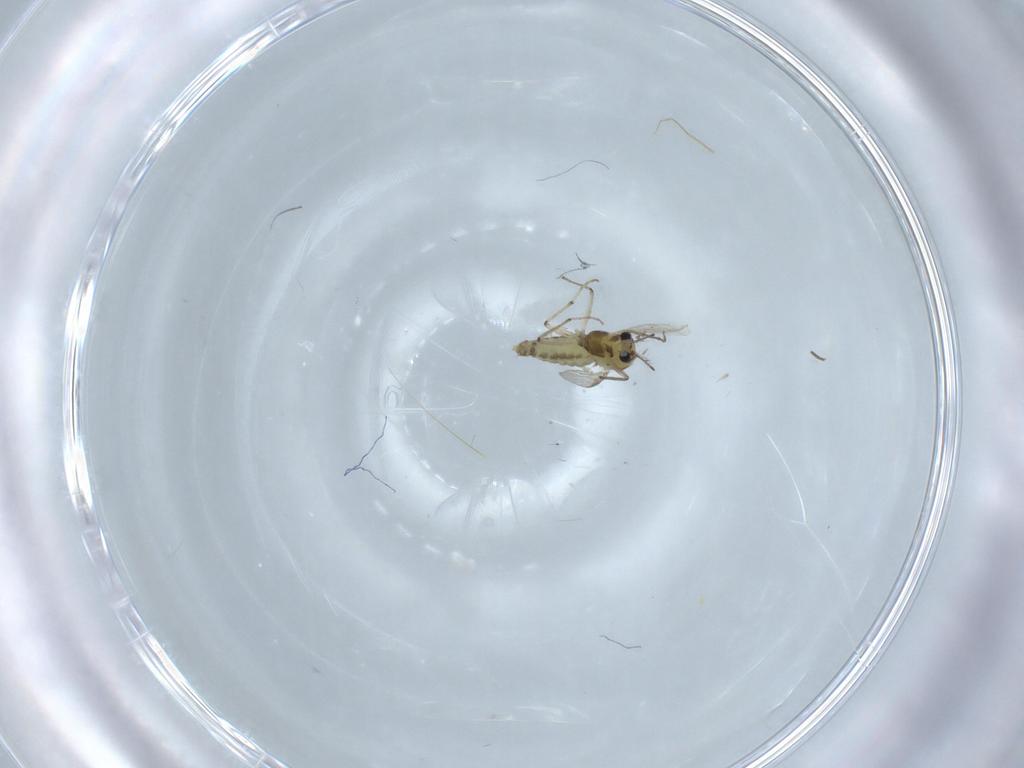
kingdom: Animalia
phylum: Arthropoda
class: Insecta
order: Diptera
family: Chironomidae
